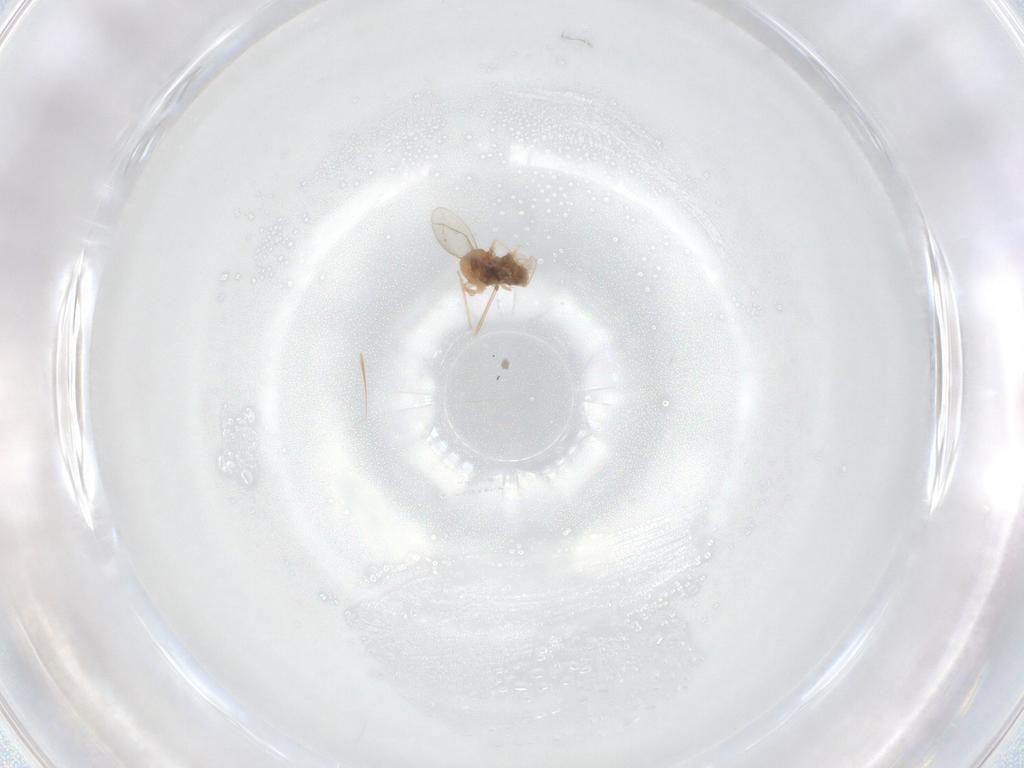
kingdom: Animalia
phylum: Arthropoda
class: Insecta
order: Diptera
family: Cecidomyiidae
